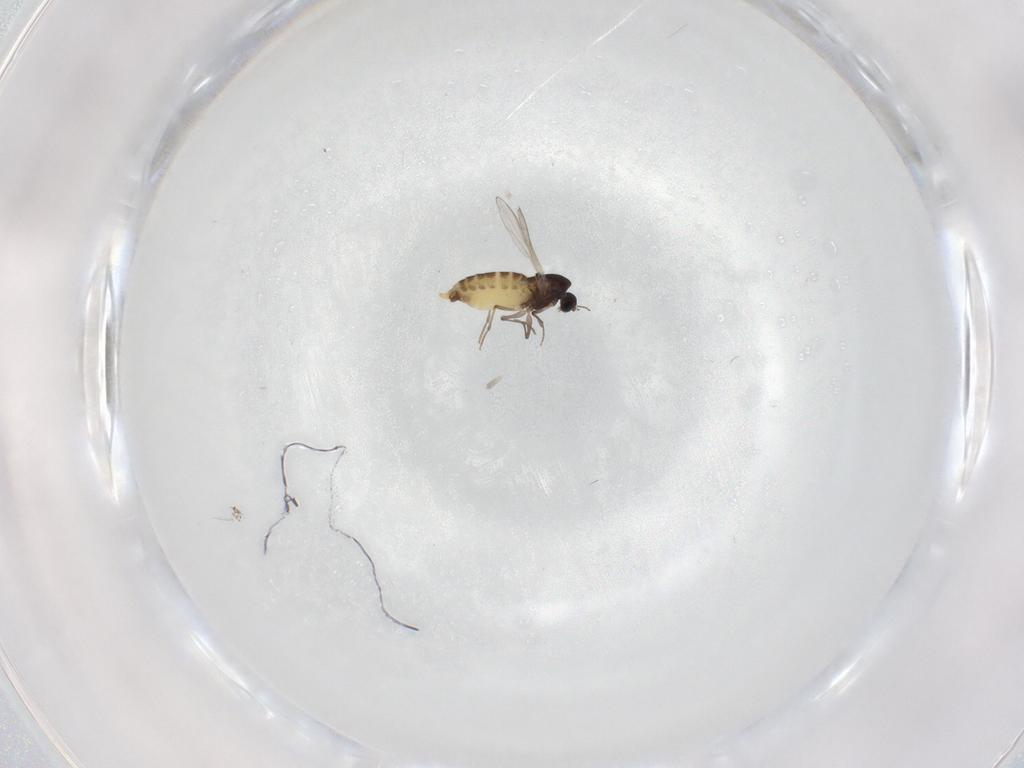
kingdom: Animalia
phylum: Arthropoda
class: Insecta
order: Diptera
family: Chironomidae
